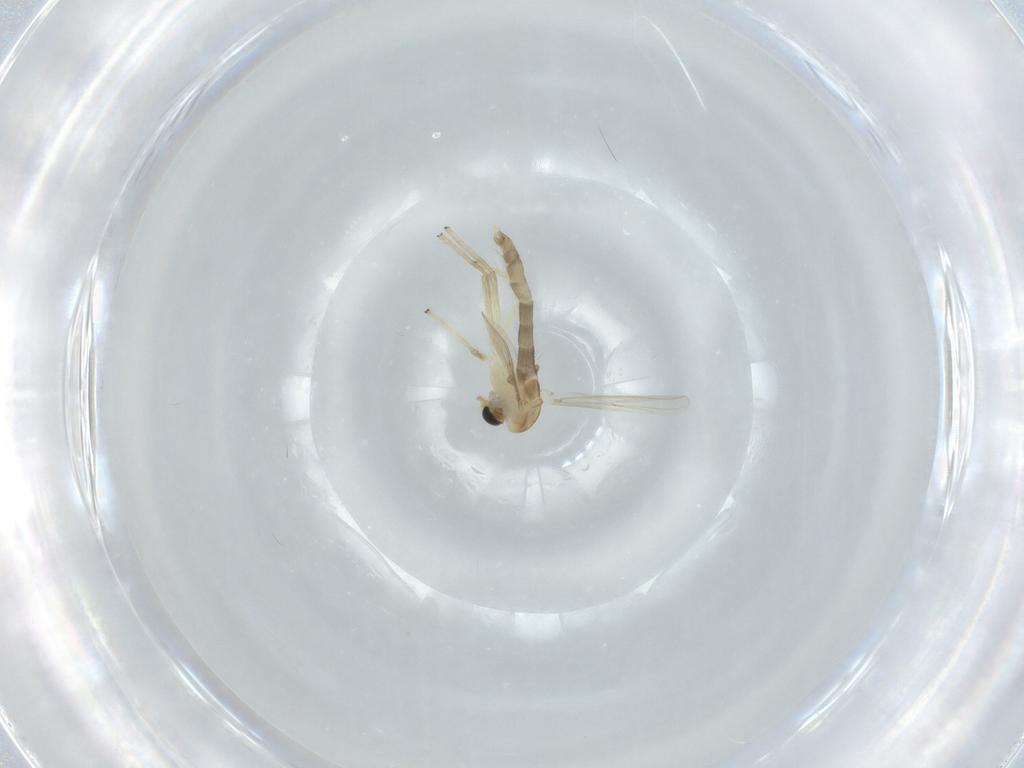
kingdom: Animalia
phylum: Arthropoda
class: Insecta
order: Diptera
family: Chironomidae
